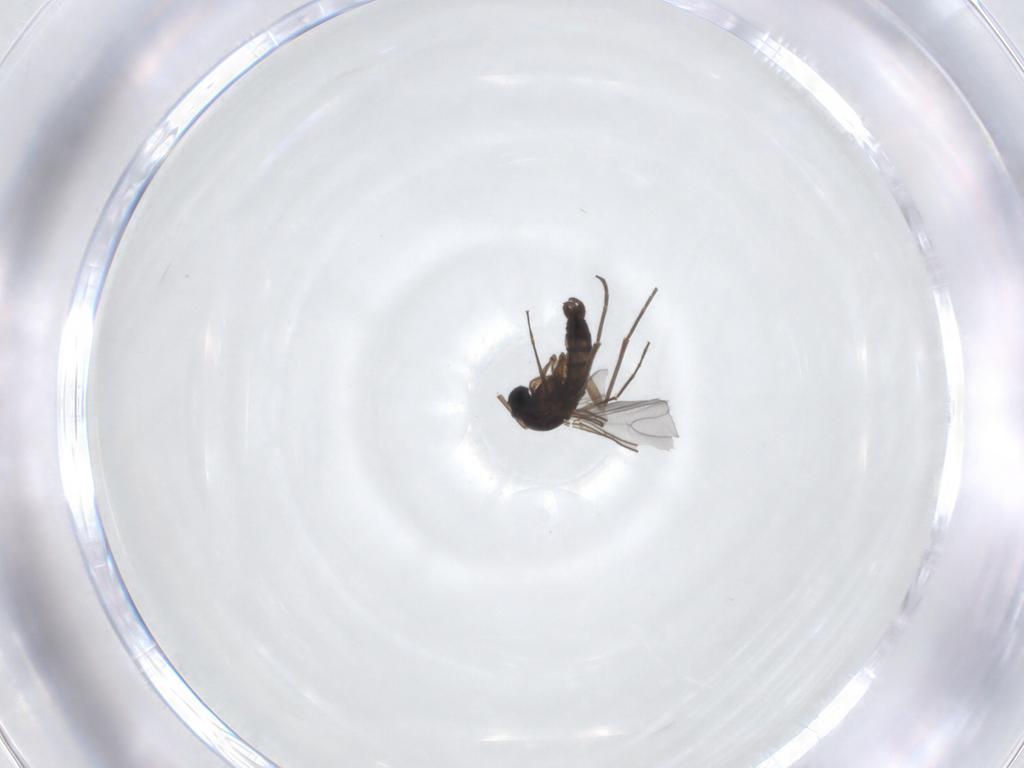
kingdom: Animalia
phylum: Arthropoda
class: Insecta
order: Diptera
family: Sciaridae
